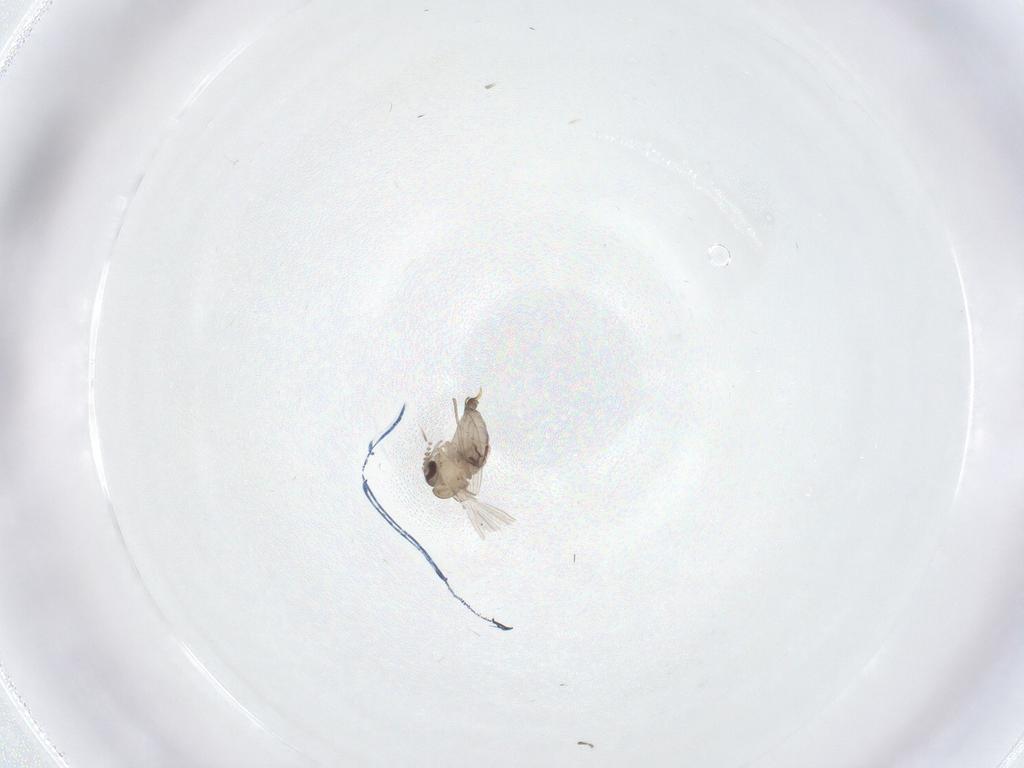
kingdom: Animalia
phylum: Arthropoda
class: Insecta
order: Diptera
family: Psychodidae
